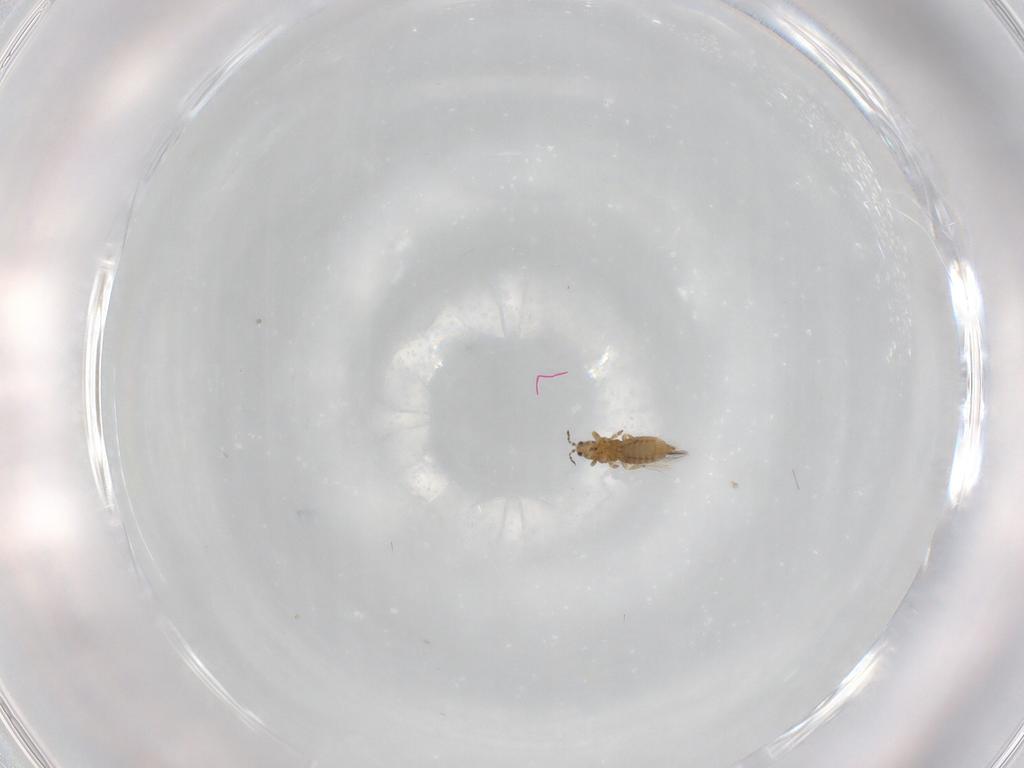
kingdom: Animalia
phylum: Arthropoda
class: Insecta
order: Thysanoptera
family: Thripidae
